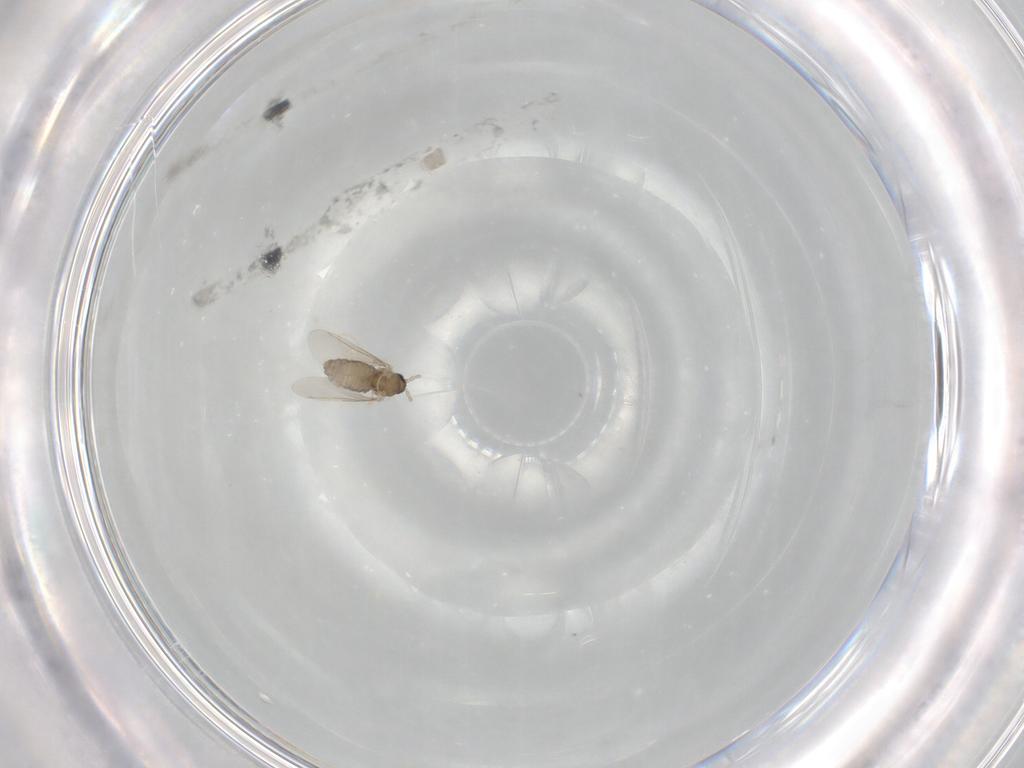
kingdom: Animalia
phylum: Arthropoda
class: Insecta
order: Diptera
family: Cecidomyiidae
